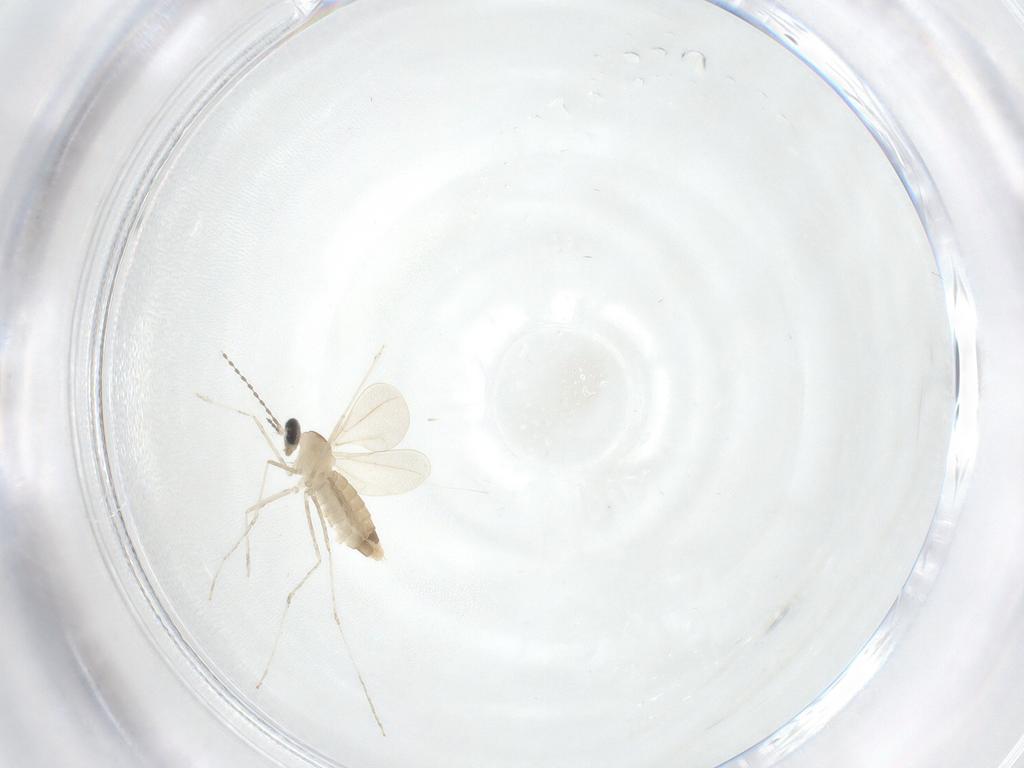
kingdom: Animalia
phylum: Arthropoda
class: Insecta
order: Diptera
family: Cecidomyiidae
